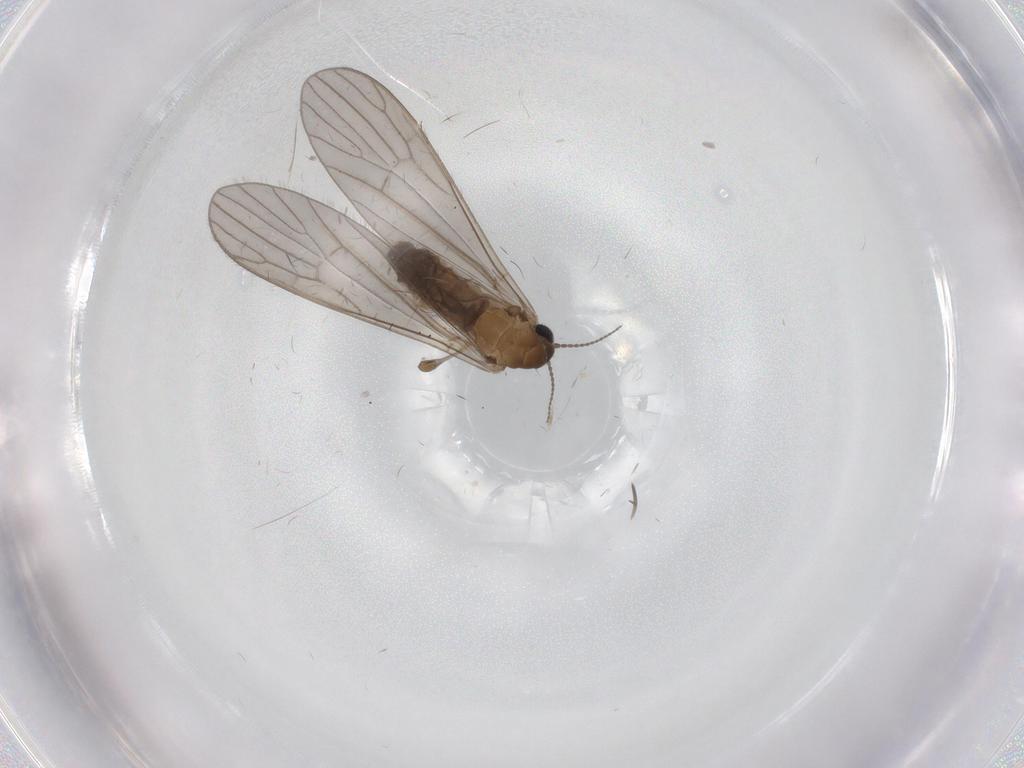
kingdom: Animalia
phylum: Arthropoda
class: Insecta
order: Diptera
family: Limoniidae
